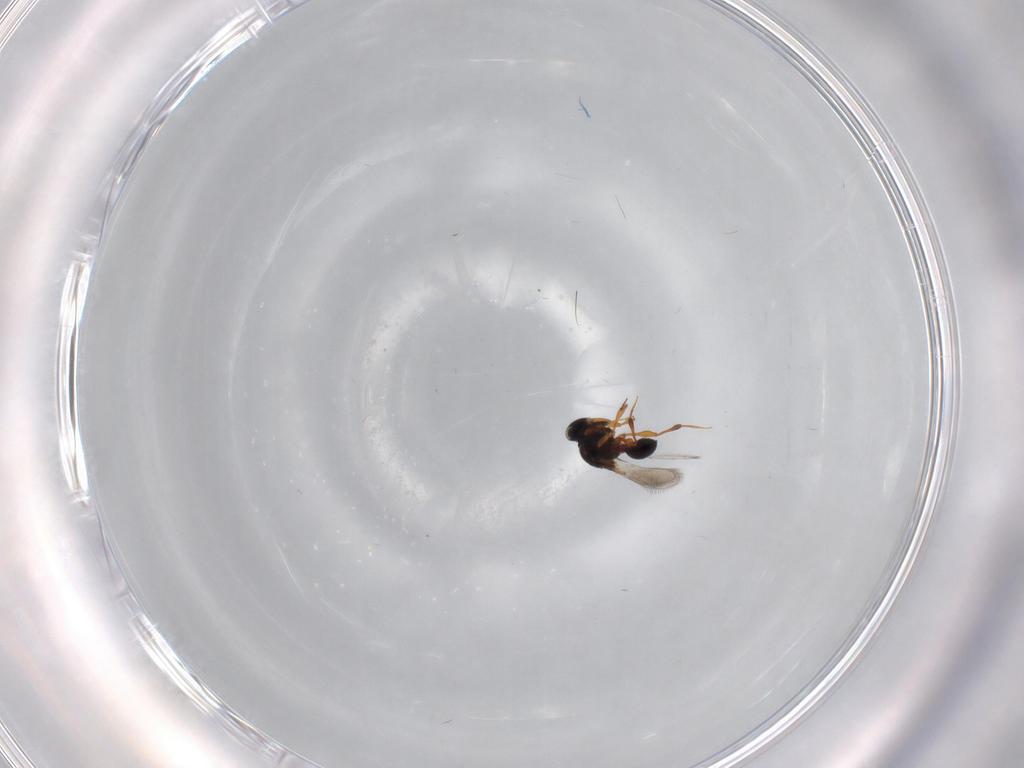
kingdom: Animalia
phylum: Arthropoda
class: Insecta
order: Hymenoptera
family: Platygastridae
